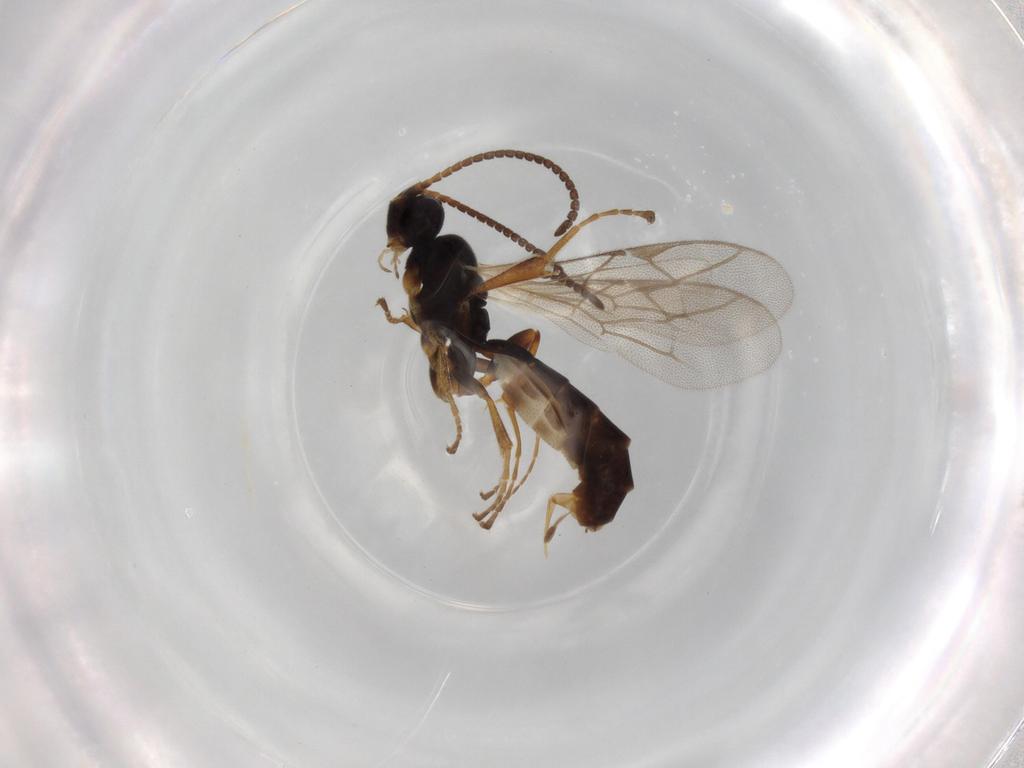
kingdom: Animalia
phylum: Arthropoda
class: Insecta
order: Hymenoptera
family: Ichneumonidae
